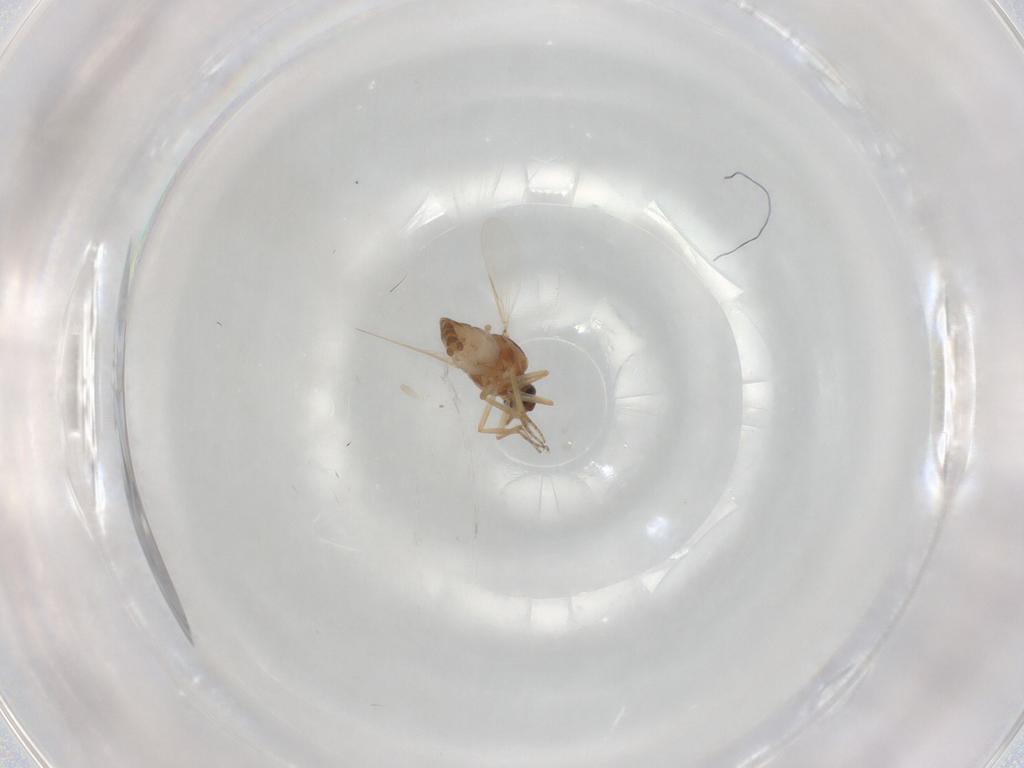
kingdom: Animalia
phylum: Arthropoda
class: Insecta
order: Diptera
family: Ceratopogonidae
